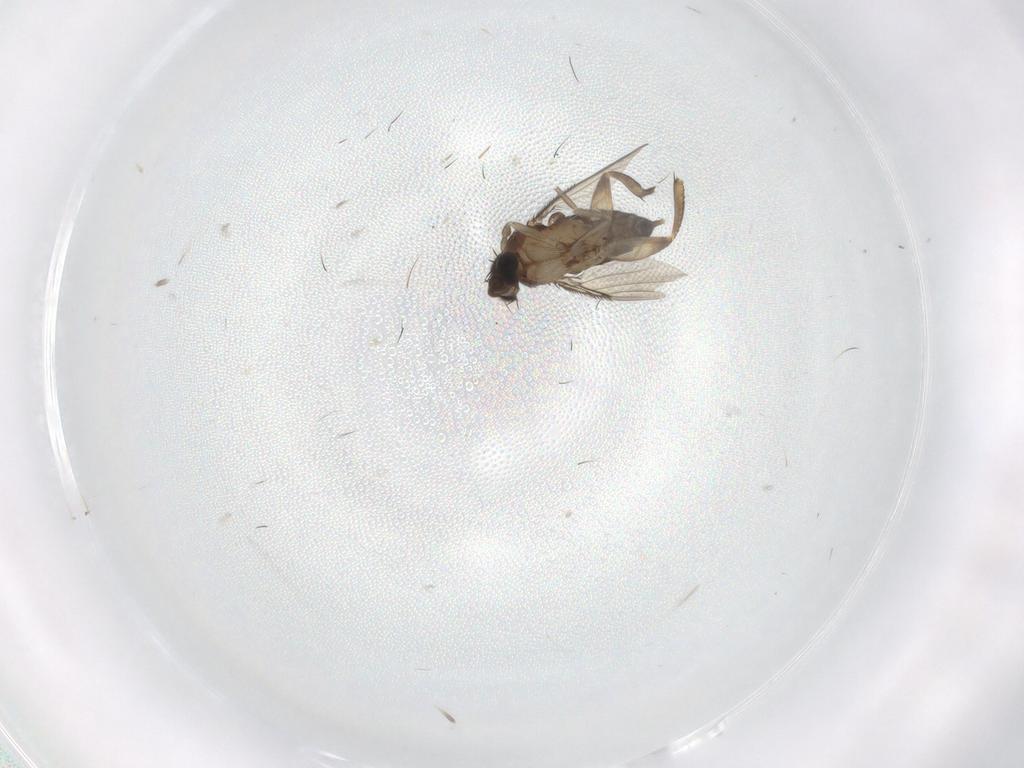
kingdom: Animalia
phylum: Arthropoda
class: Insecta
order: Diptera
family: Phoridae
